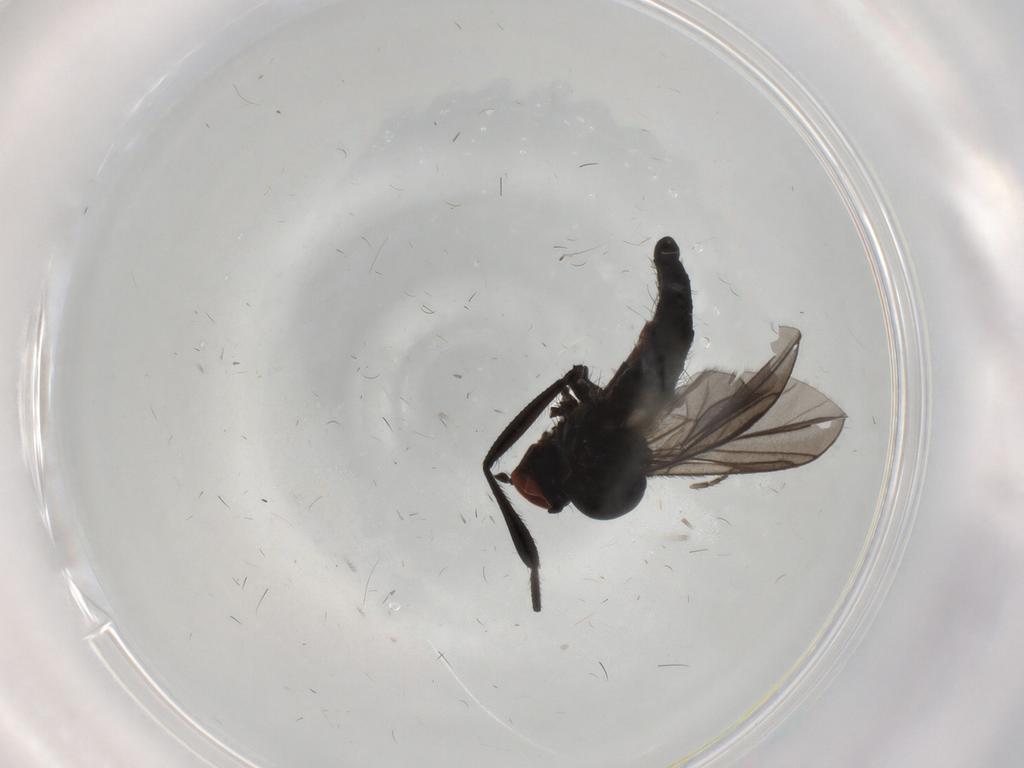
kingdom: Animalia
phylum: Arthropoda
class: Insecta
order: Diptera
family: Hybotidae
